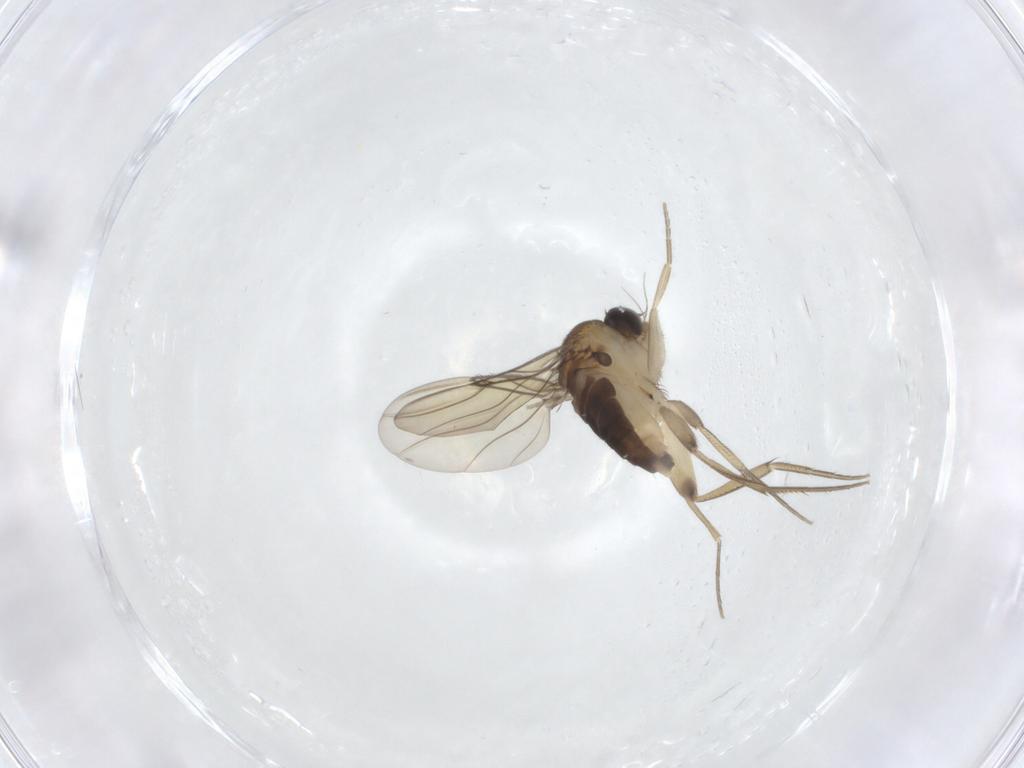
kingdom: Animalia
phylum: Arthropoda
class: Insecta
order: Diptera
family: Phoridae
